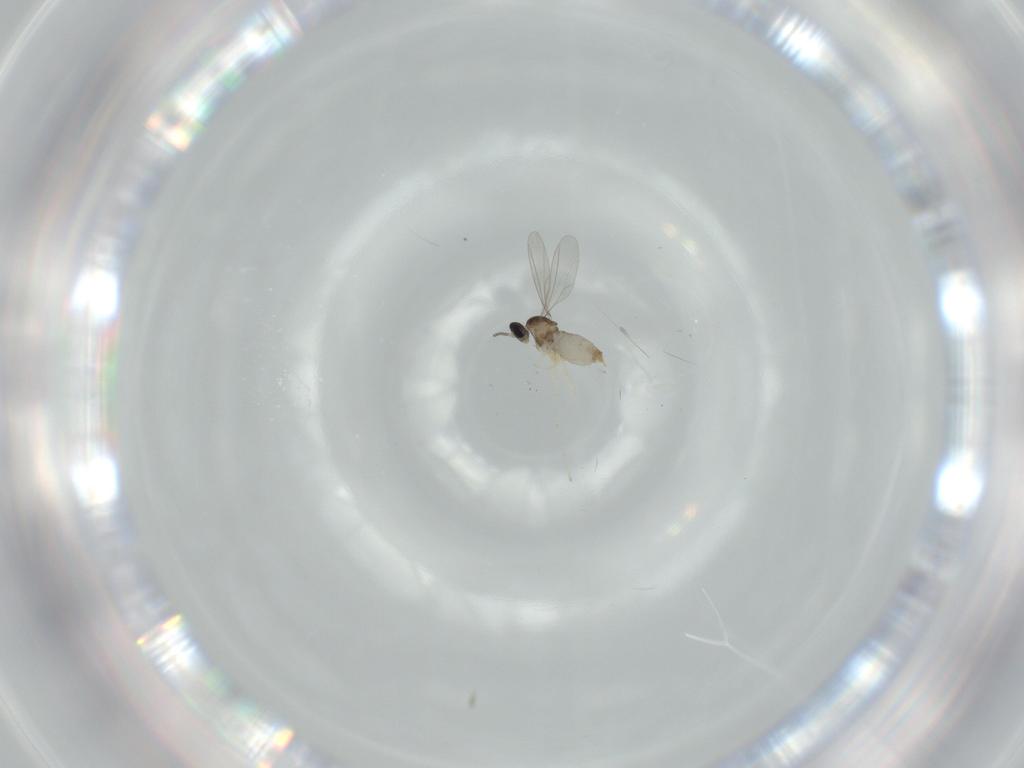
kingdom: Animalia
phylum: Arthropoda
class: Insecta
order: Diptera
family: Cecidomyiidae
